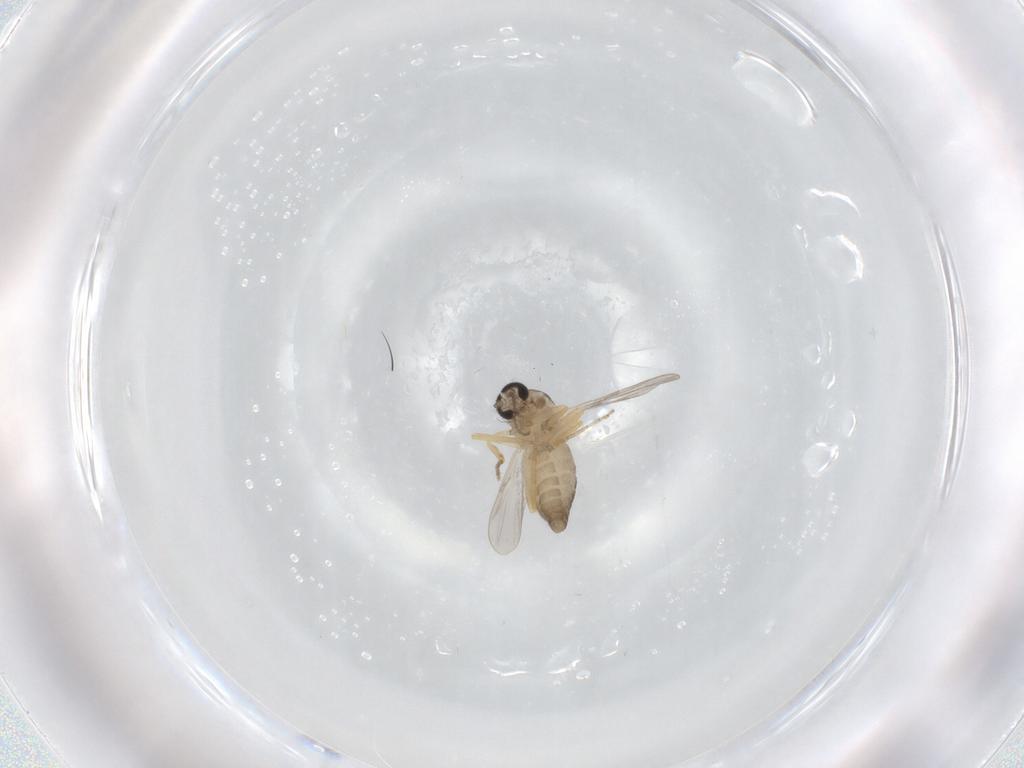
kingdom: Animalia
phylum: Arthropoda
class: Insecta
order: Diptera
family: Ceratopogonidae
